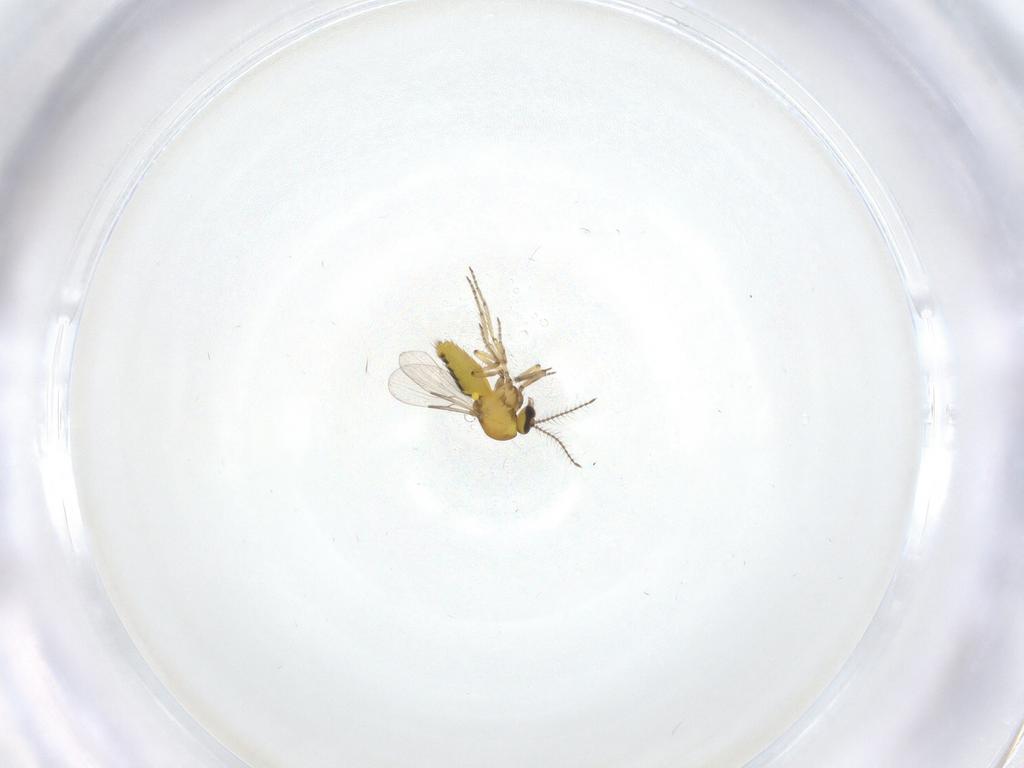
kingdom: Animalia
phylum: Arthropoda
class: Insecta
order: Diptera
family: Ceratopogonidae
